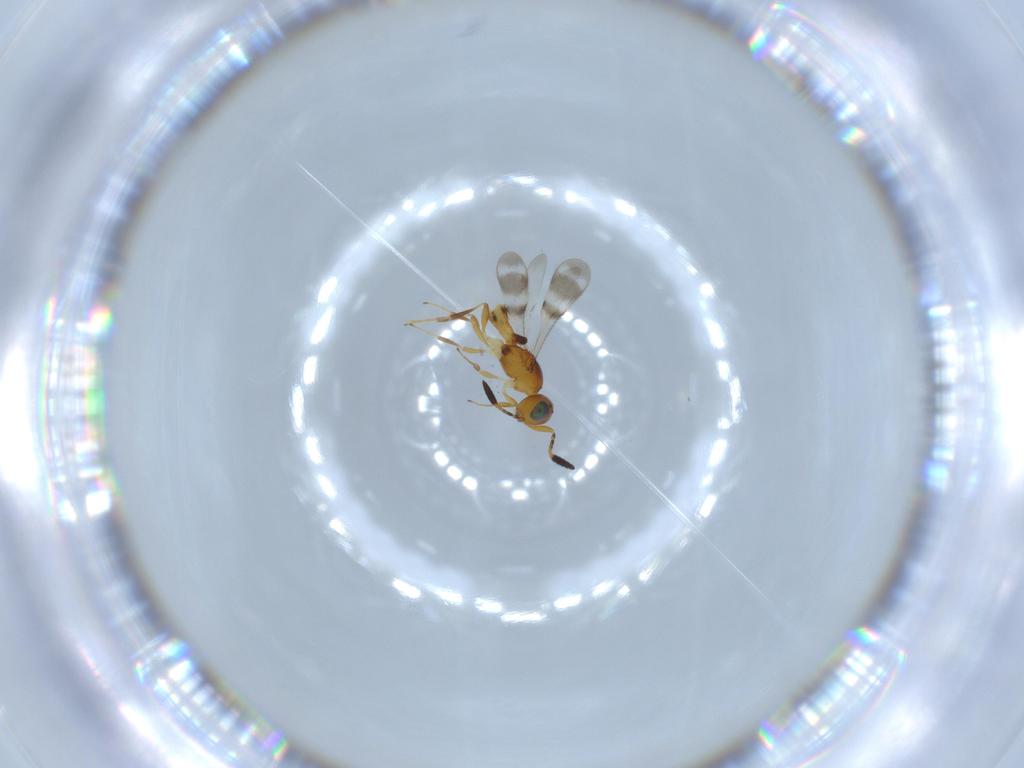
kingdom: Animalia
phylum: Arthropoda
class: Insecta
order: Hymenoptera
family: Scelionidae
